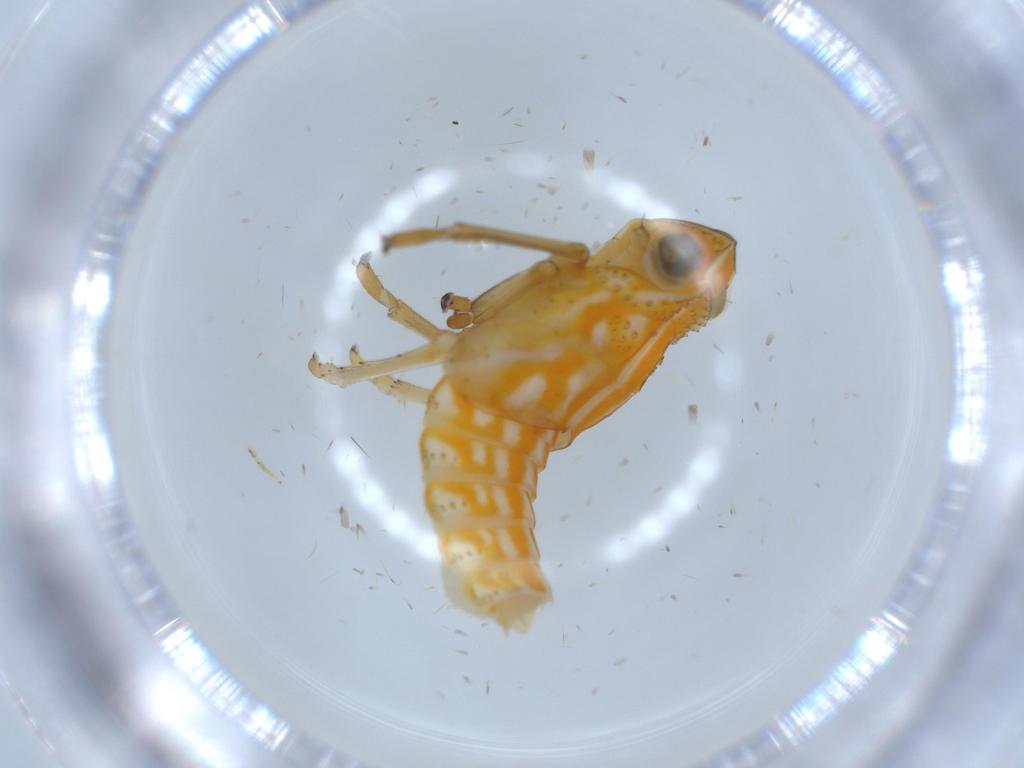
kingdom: Animalia
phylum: Arthropoda
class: Insecta
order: Hemiptera
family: Issidae
